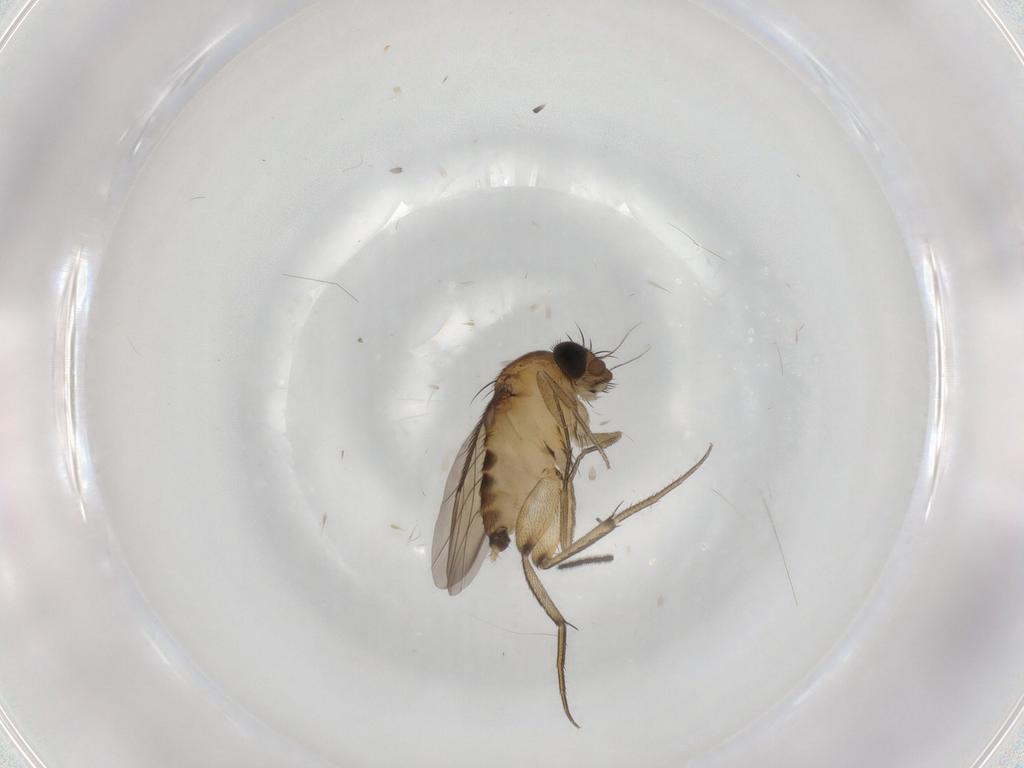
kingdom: Animalia
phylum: Arthropoda
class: Insecta
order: Diptera
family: Phoridae
